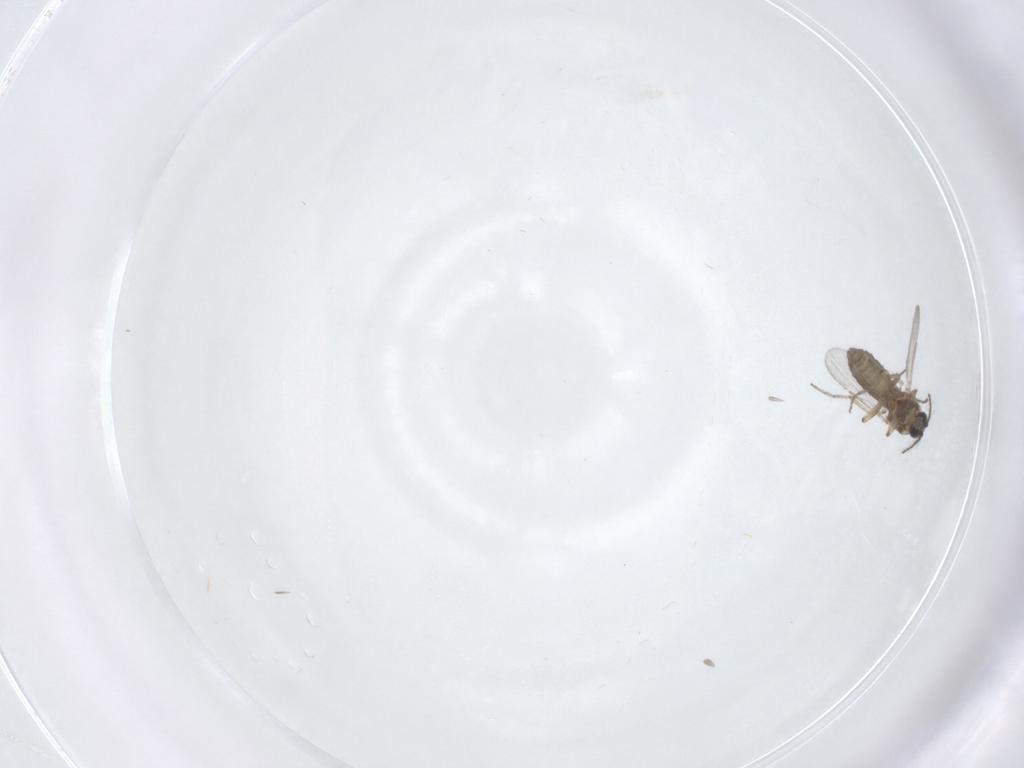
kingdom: Animalia
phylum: Arthropoda
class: Insecta
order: Diptera
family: Ceratopogonidae
